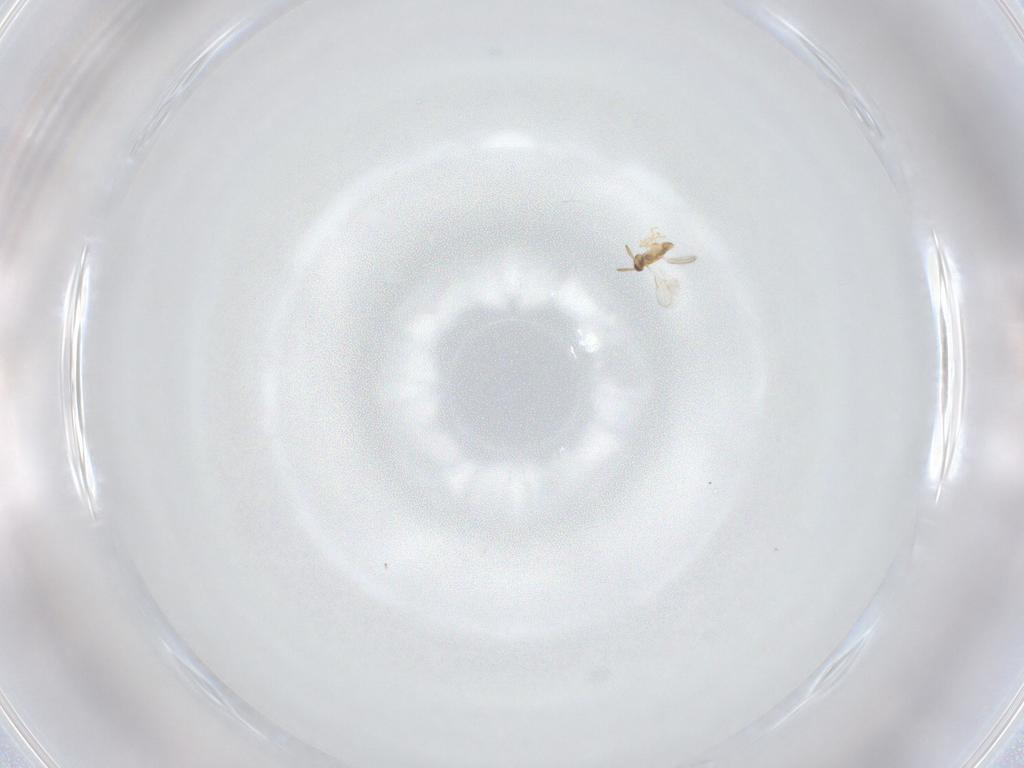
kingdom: Animalia
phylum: Arthropoda
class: Insecta
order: Hymenoptera
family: Aphelinidae
